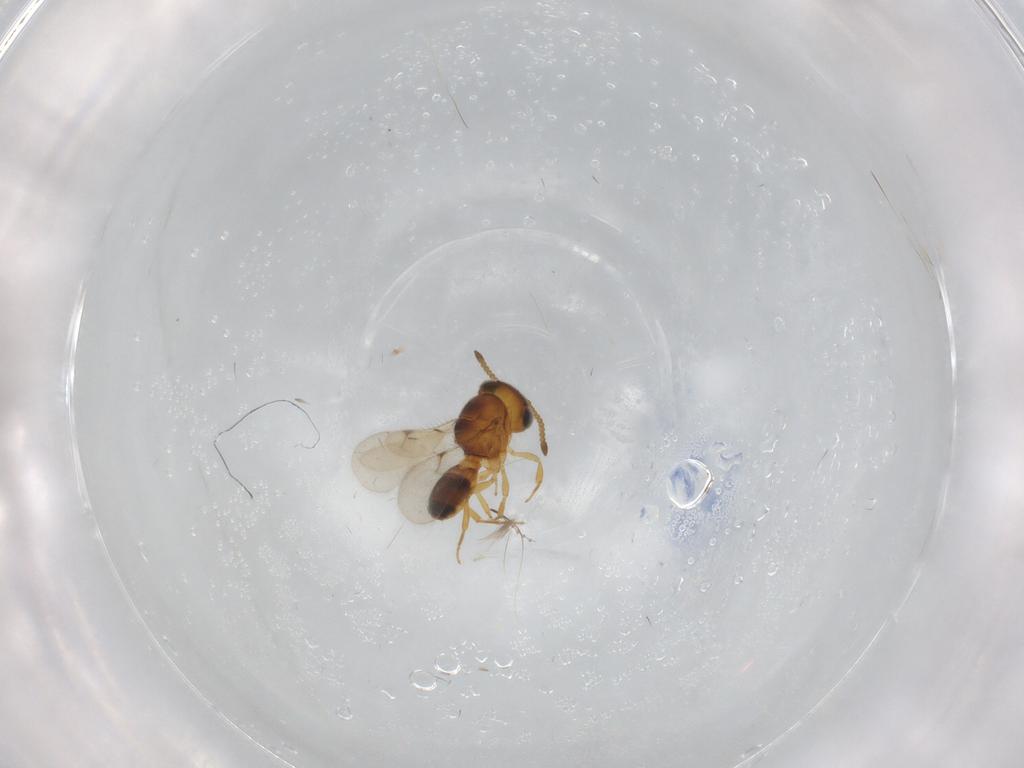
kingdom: Animalia
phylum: Arthropoda
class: Insecta
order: Hymenoptera
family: Scelionidae
